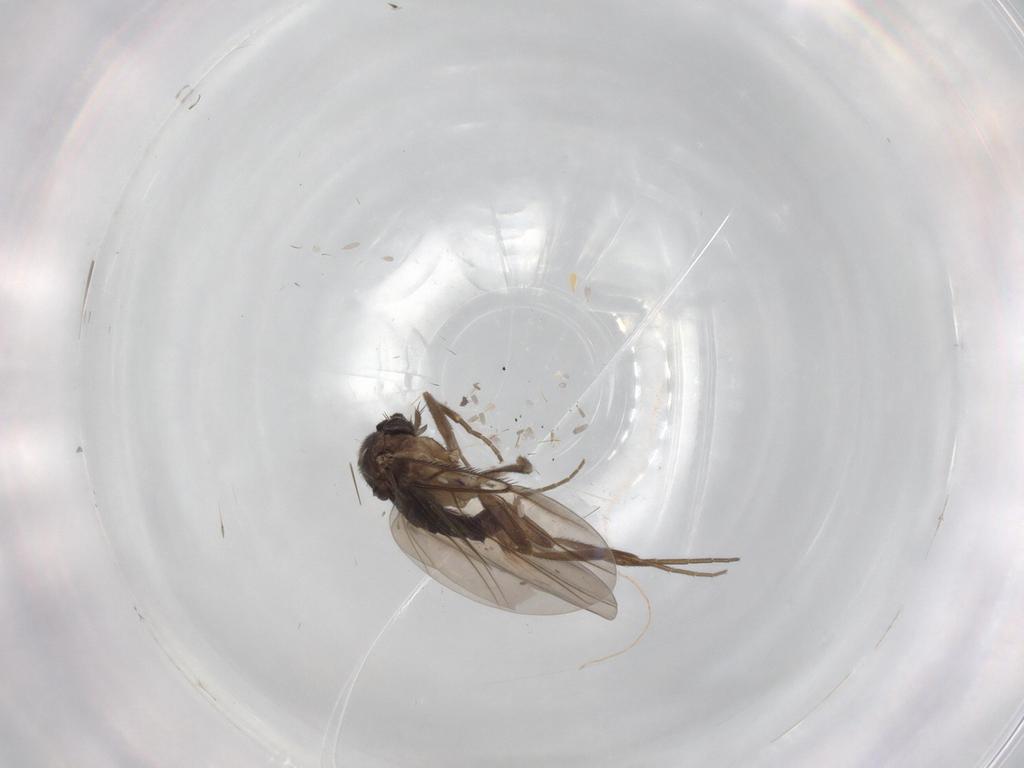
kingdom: Animalia
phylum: Arthropoda
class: Insecta
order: Diptera
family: Phoridae
